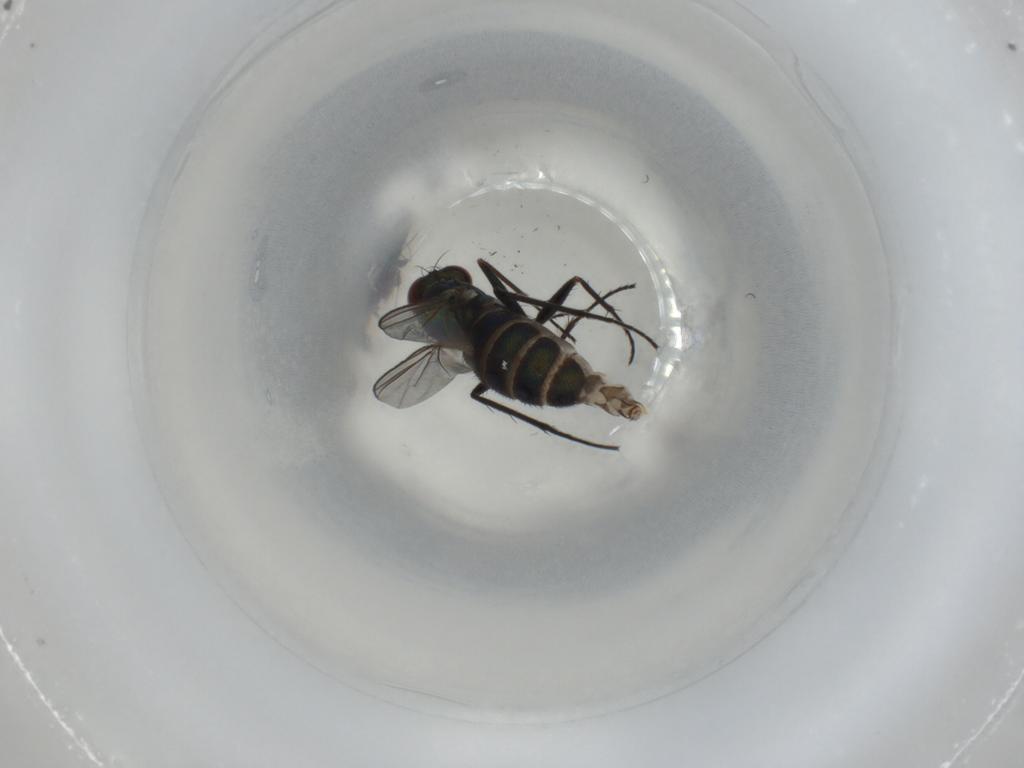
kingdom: Animalia
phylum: Arthropoda
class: Insecta
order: Diptera
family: Dolichopodidae
